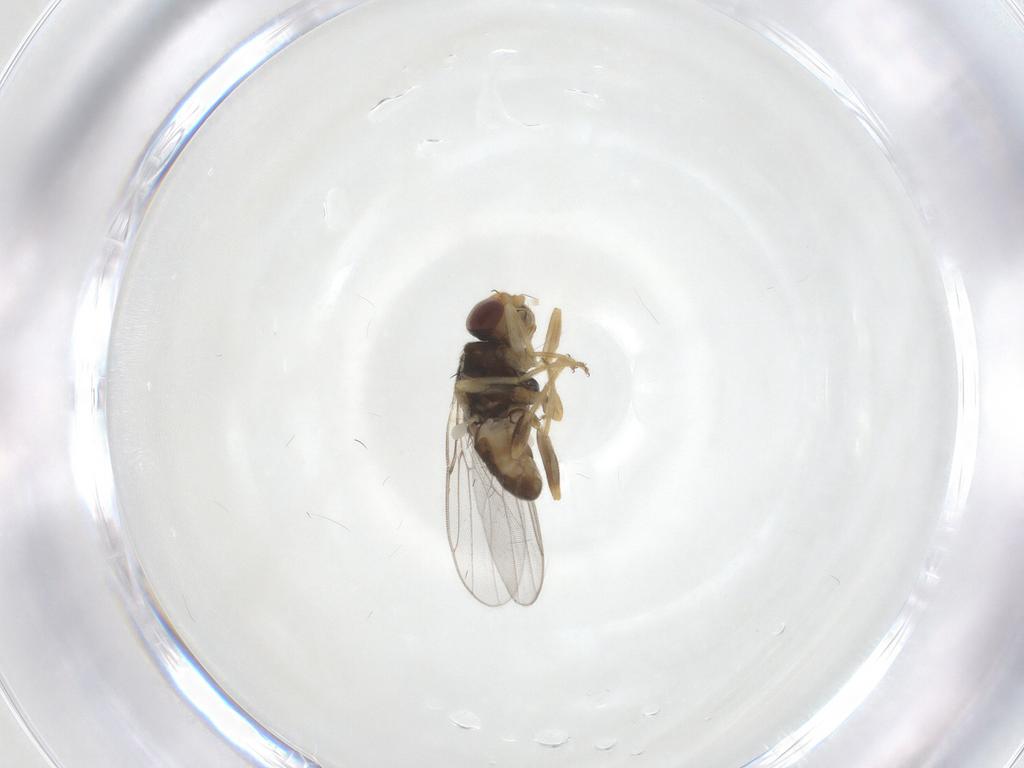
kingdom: Animalia
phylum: Arthropoda
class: Insecta
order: Diptera
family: Chloropidae
